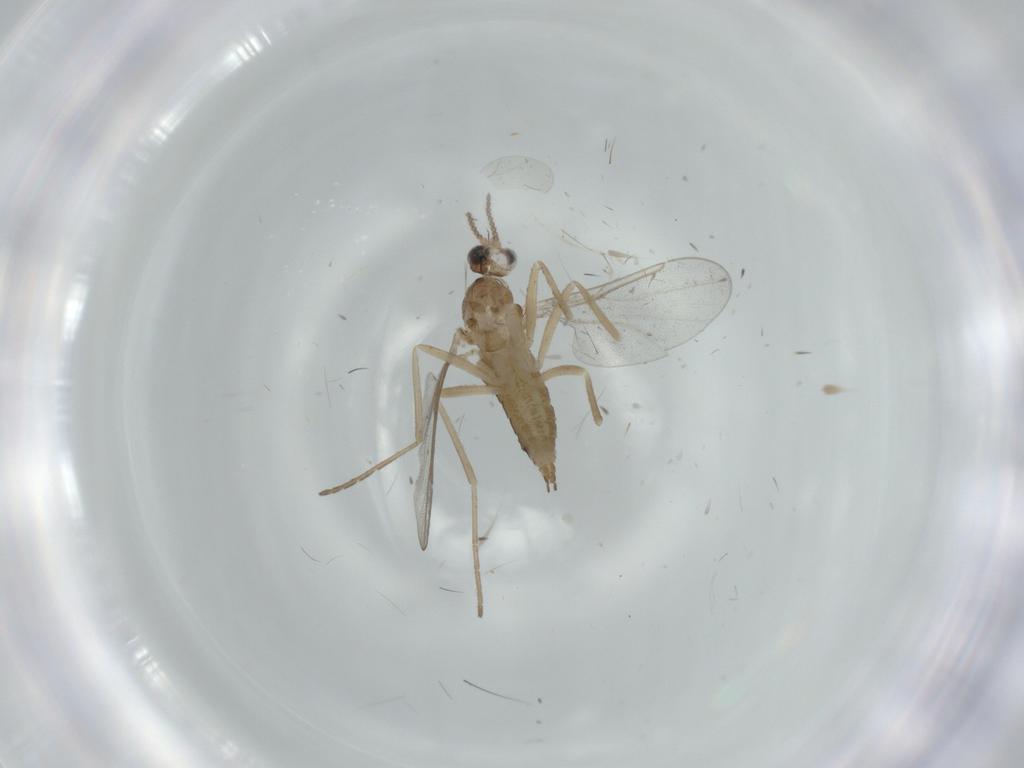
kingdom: Animalia
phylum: Arthropoda
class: Insecta
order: Diptera
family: Cecidomyiidae
